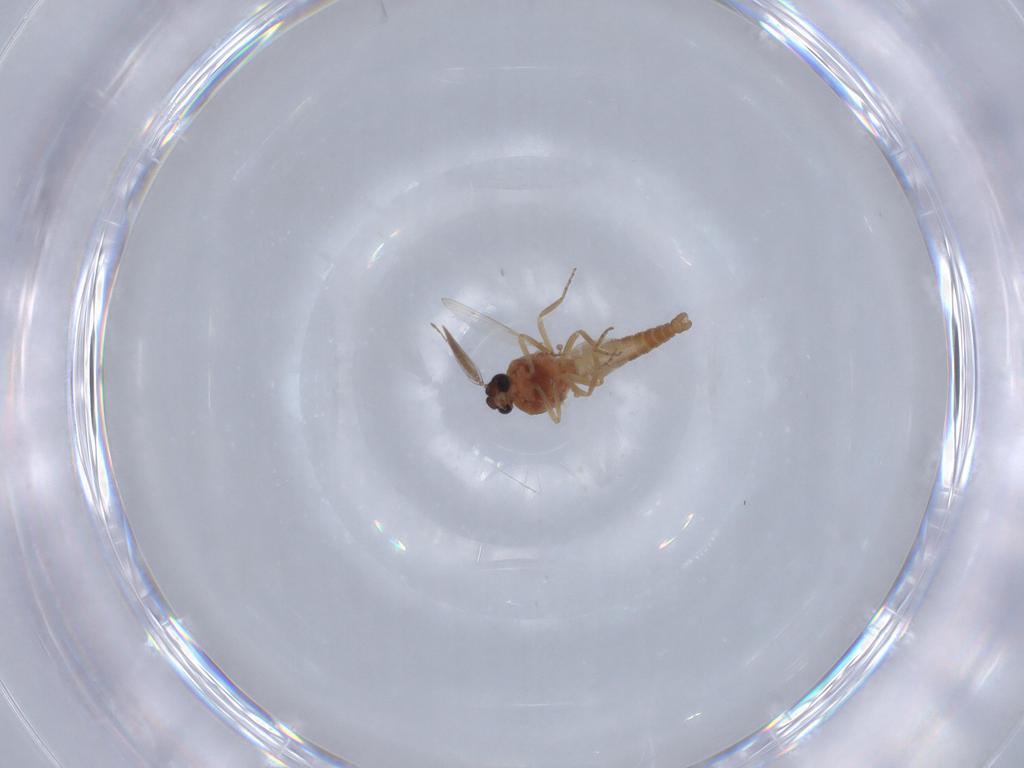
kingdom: Animalia
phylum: Arthropoda
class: Insecta
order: Diptera
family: Ceratopogonidae
